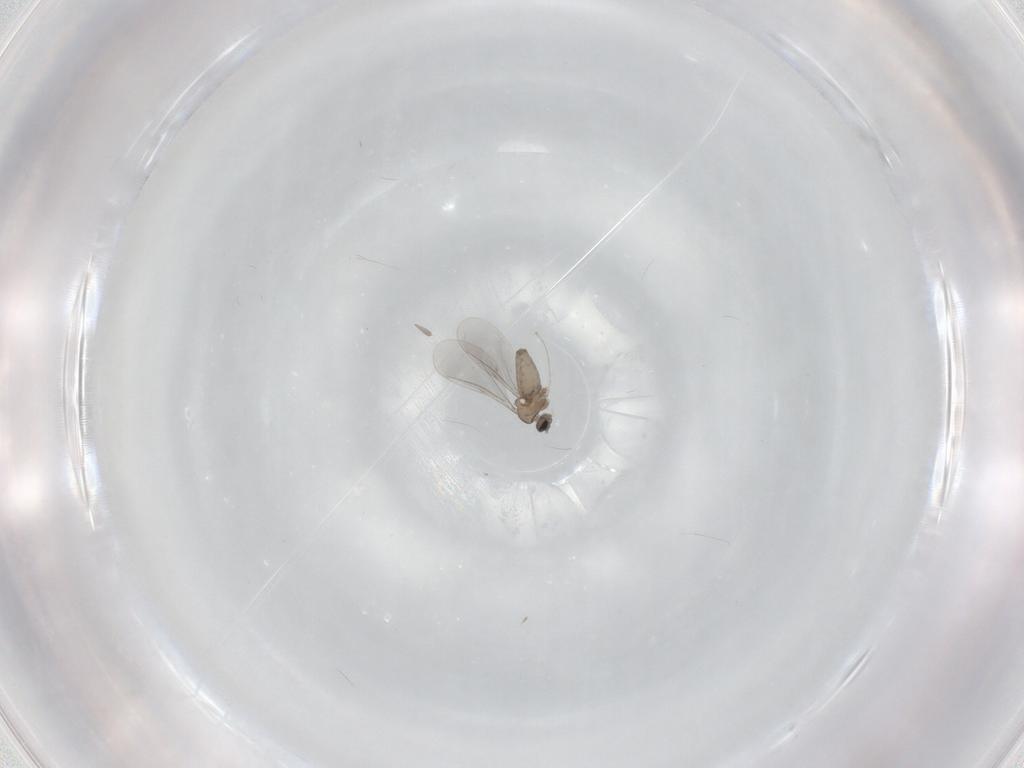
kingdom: Animalia
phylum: Arthropoda
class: Insecta
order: Diptera
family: Cecidomyiidae
